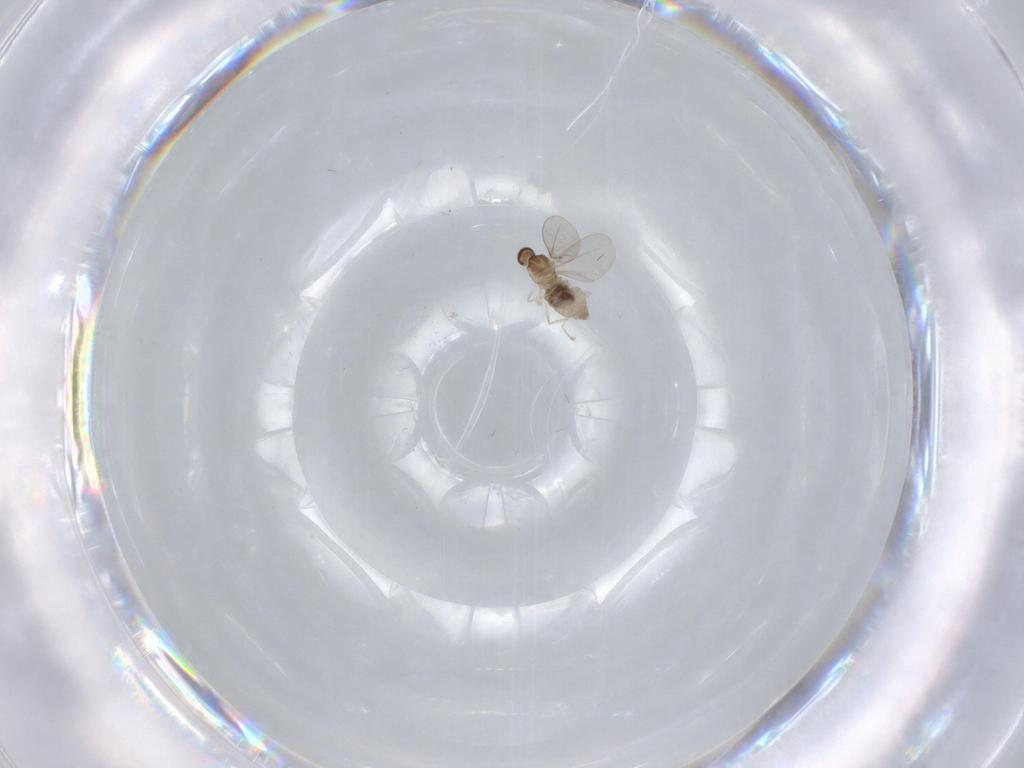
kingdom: Animalia
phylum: Arthropoda
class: Insecta
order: Diptera
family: Cecidomyiidae
